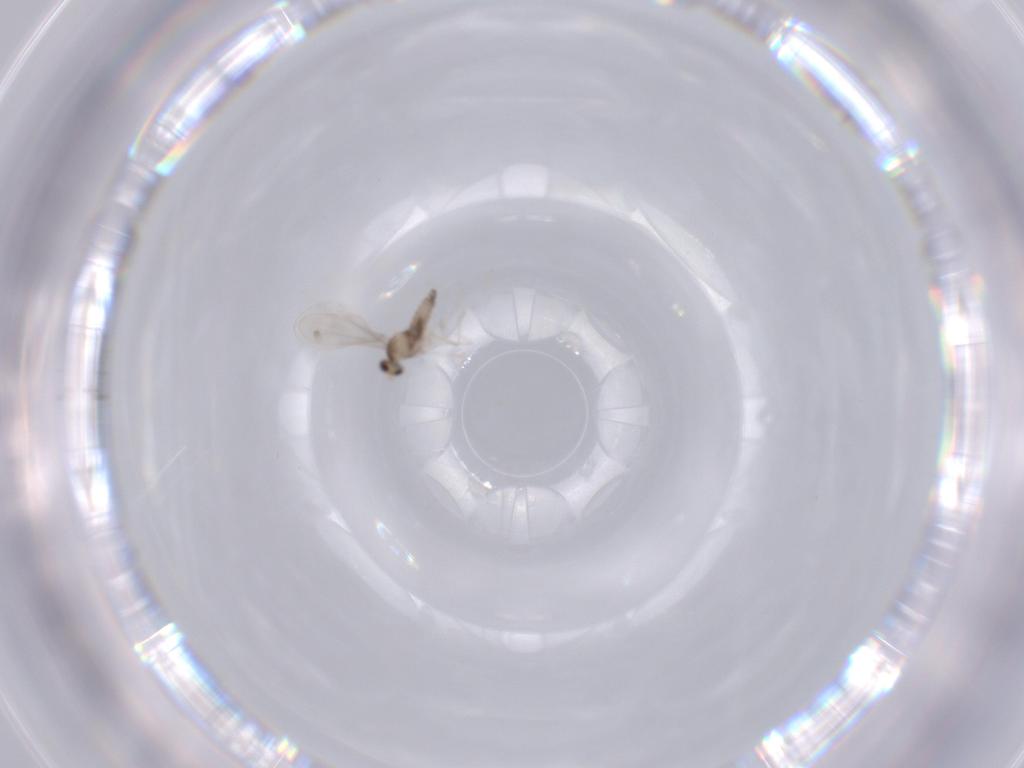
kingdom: Animalia
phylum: Arthropoda
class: Insecta
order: Diptera
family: Cecidomyiidae
